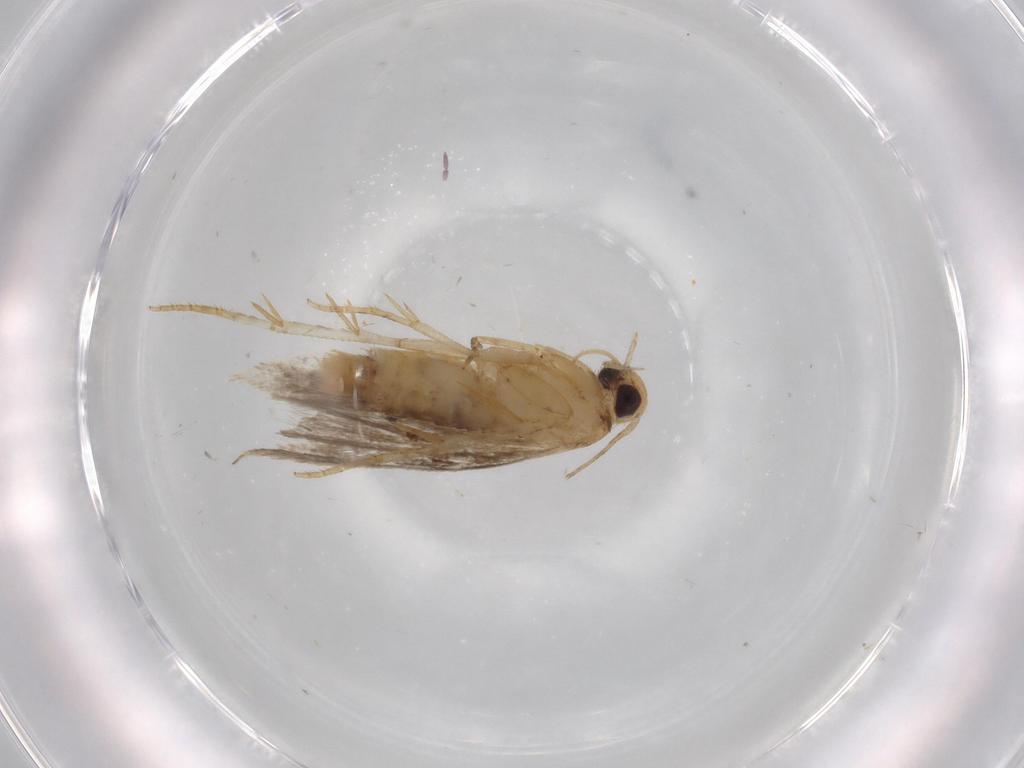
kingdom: Animalia
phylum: Arthropoda
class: Insecta
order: Lepidoptera
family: Gelechiidae
